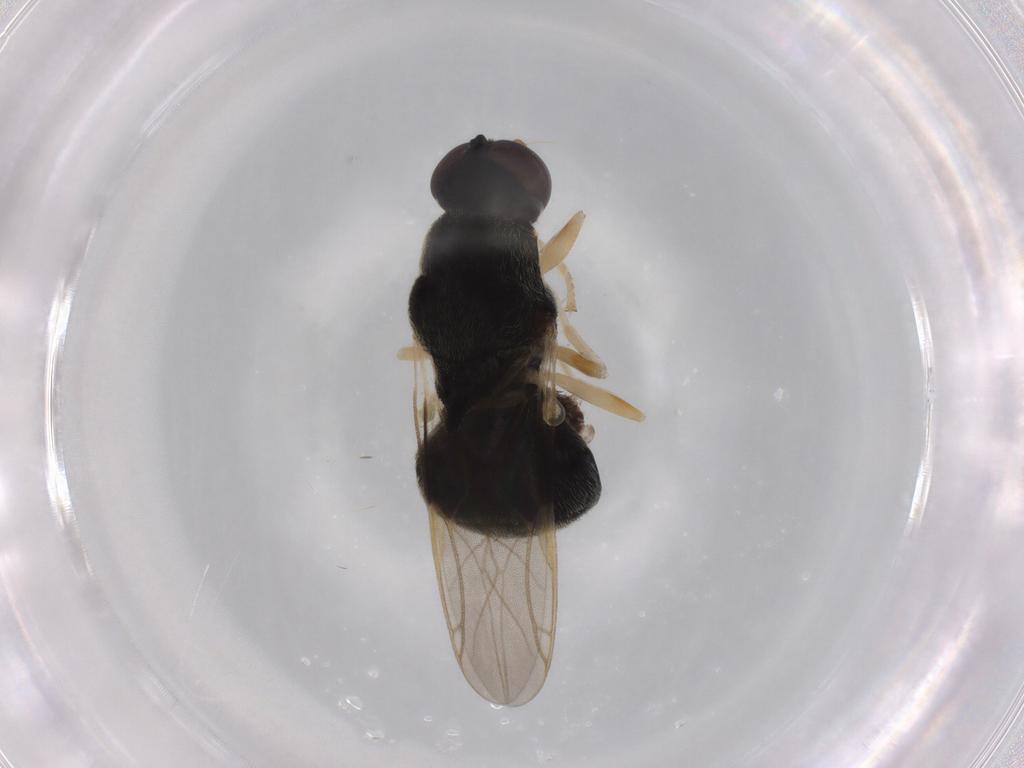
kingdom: Animalia
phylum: Arthropoda
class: Insecta
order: Diptera
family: Stratiomyidae
